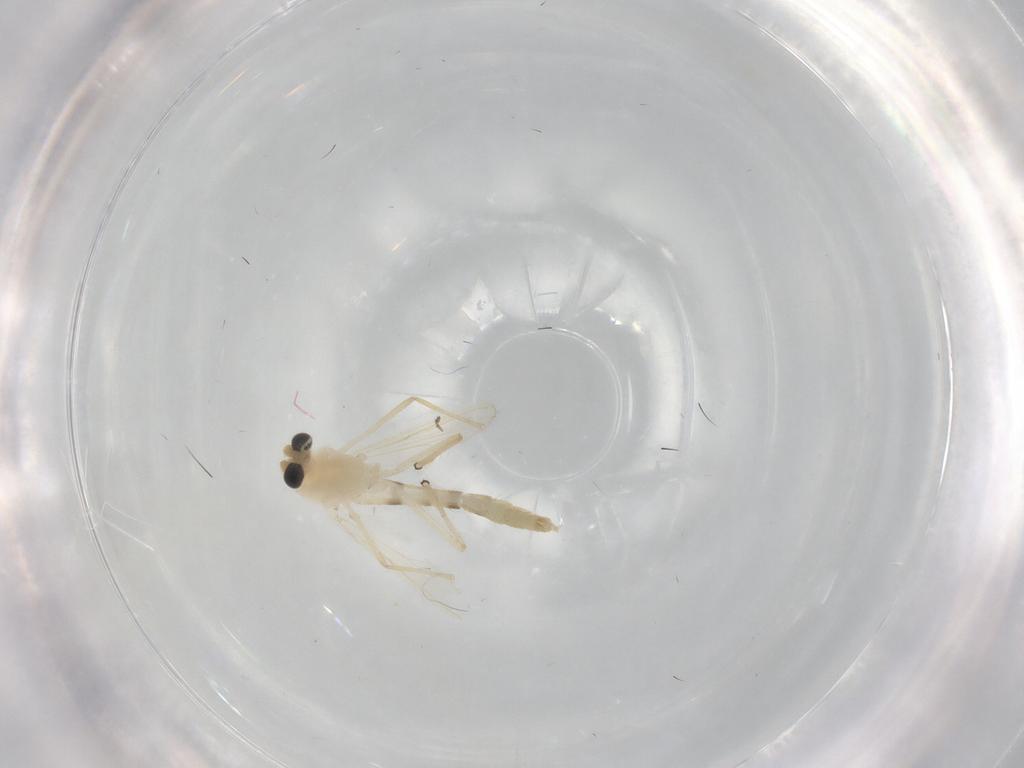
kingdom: Animalia
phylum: Arthropoda
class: Insecta
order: Diptera
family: Chironomidae
